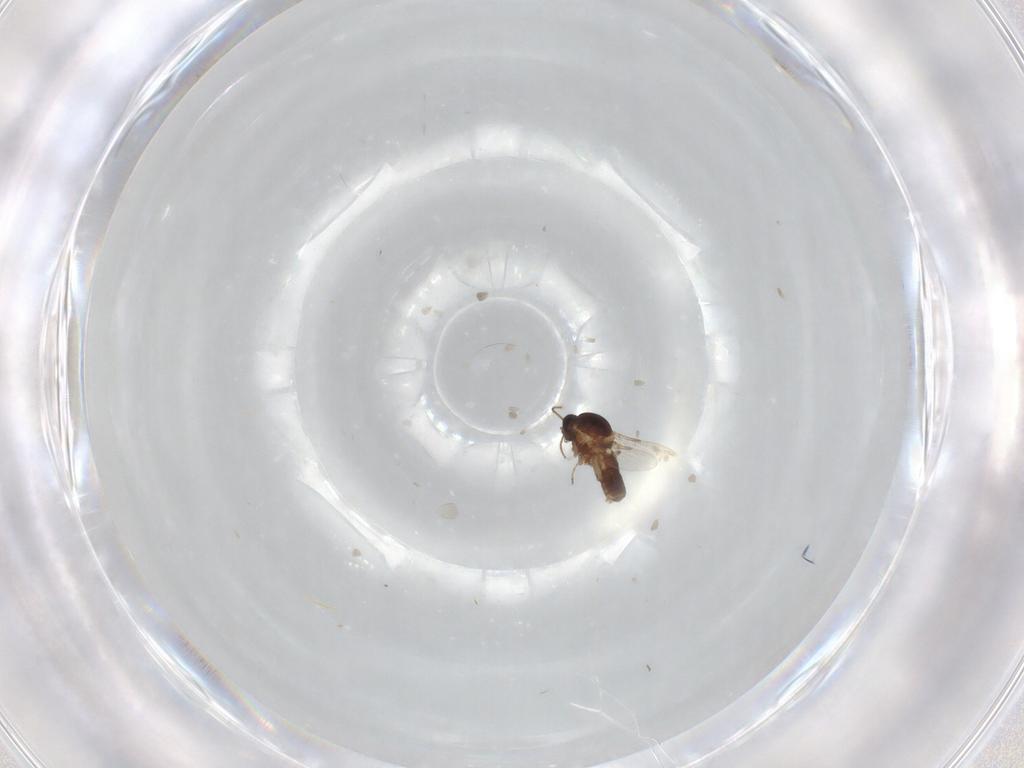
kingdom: Animalia
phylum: Arthropoda
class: Insecta
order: Diptera
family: Ceratopogonidae
